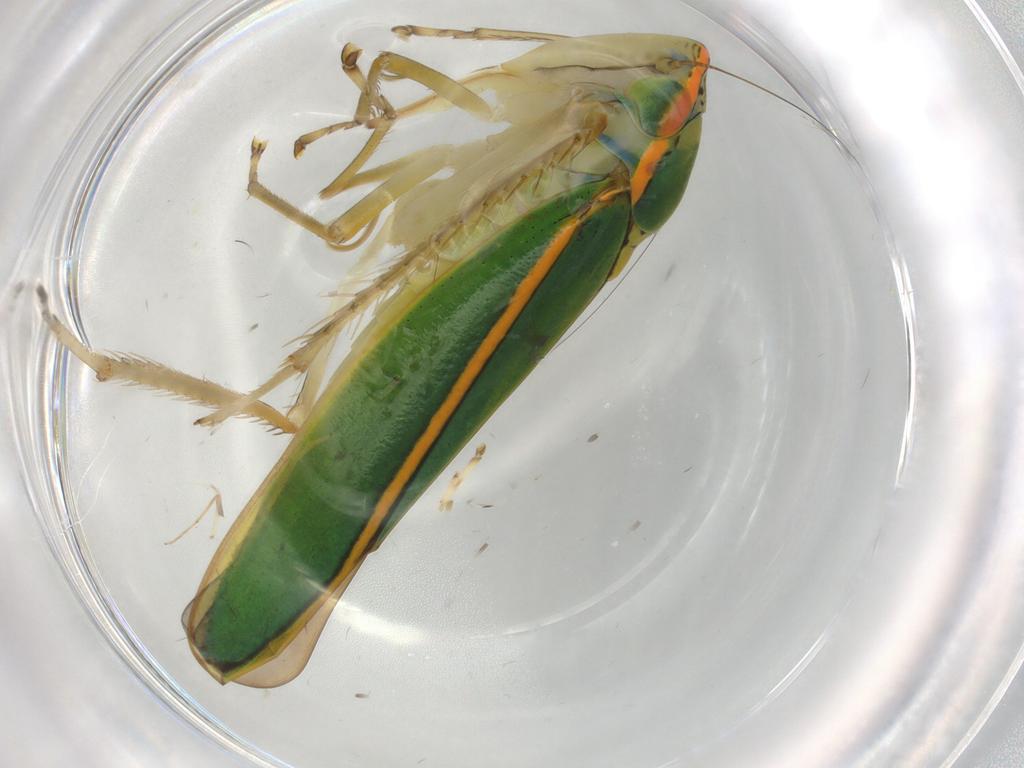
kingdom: Animalia
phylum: Arthropoda
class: Insecta
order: Hemiptera
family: Cicadellidae
